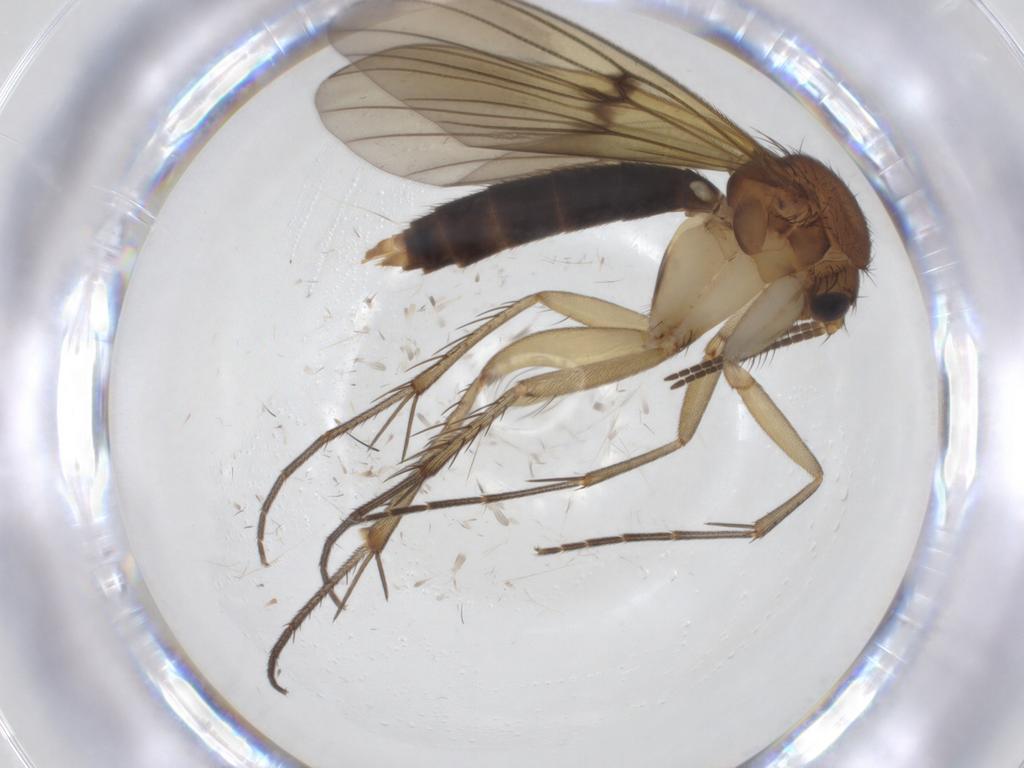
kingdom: Animalia
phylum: Arthropoda
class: Insecta
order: Diptera
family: Mycetophilidae
